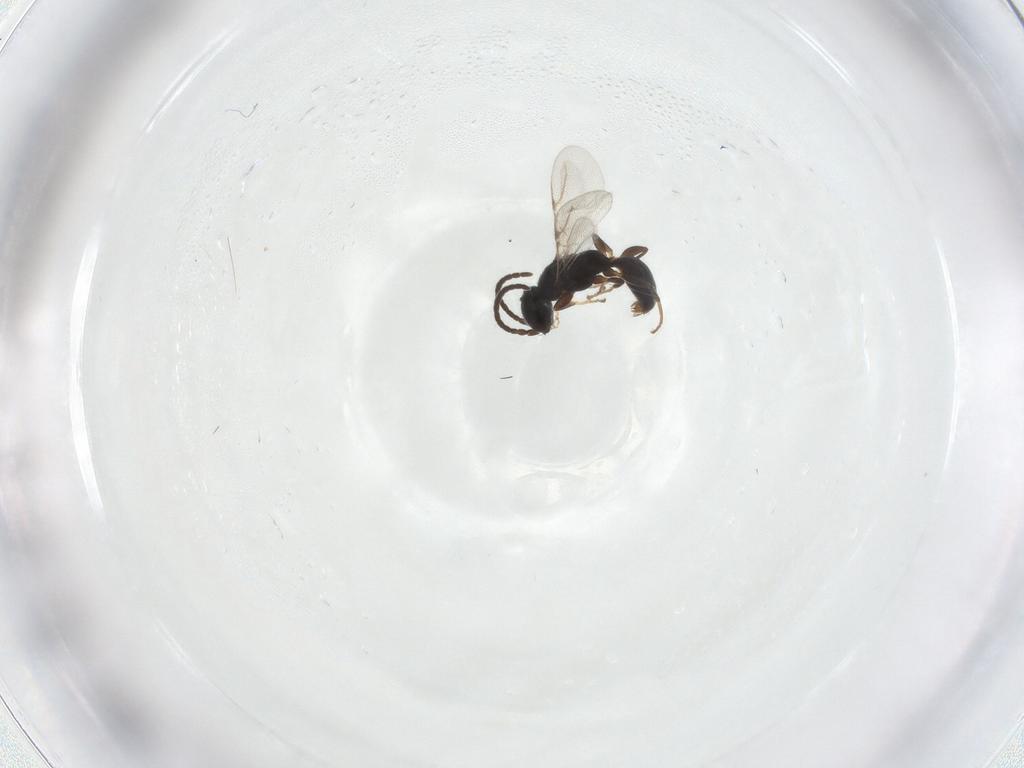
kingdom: Animalia
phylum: Arthropoda
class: Insecta
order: Hymenoptera
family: Bethylidae
